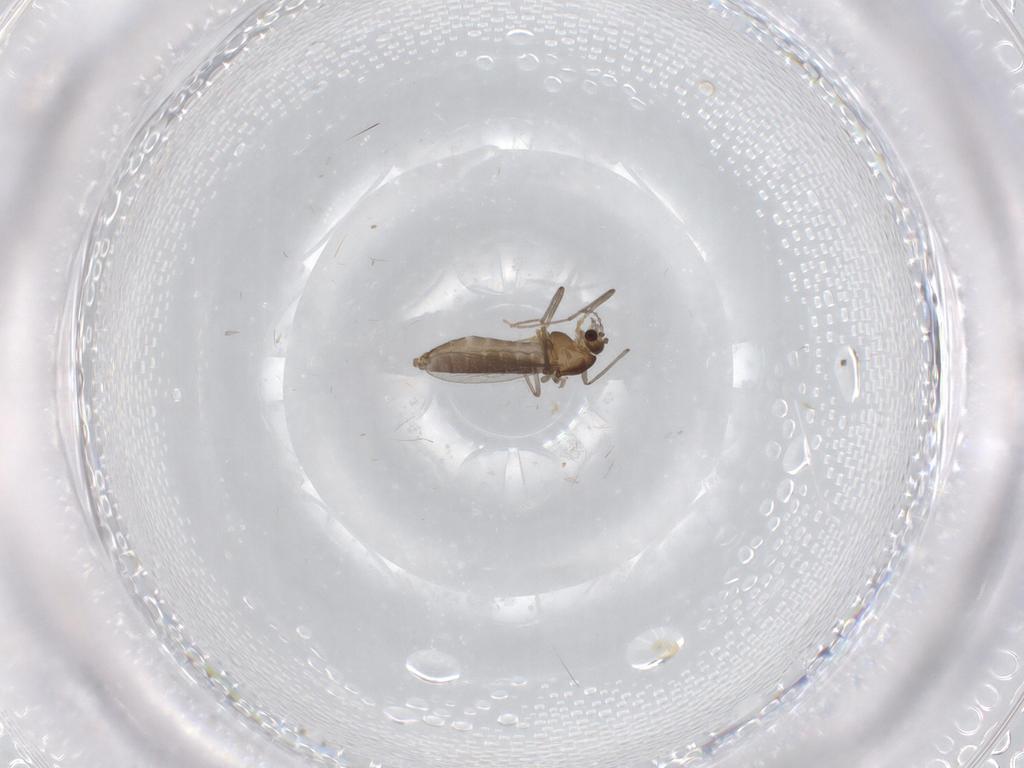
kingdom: Animalia
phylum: Arthropoda
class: Insecta
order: Diptera
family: Chironomidae
